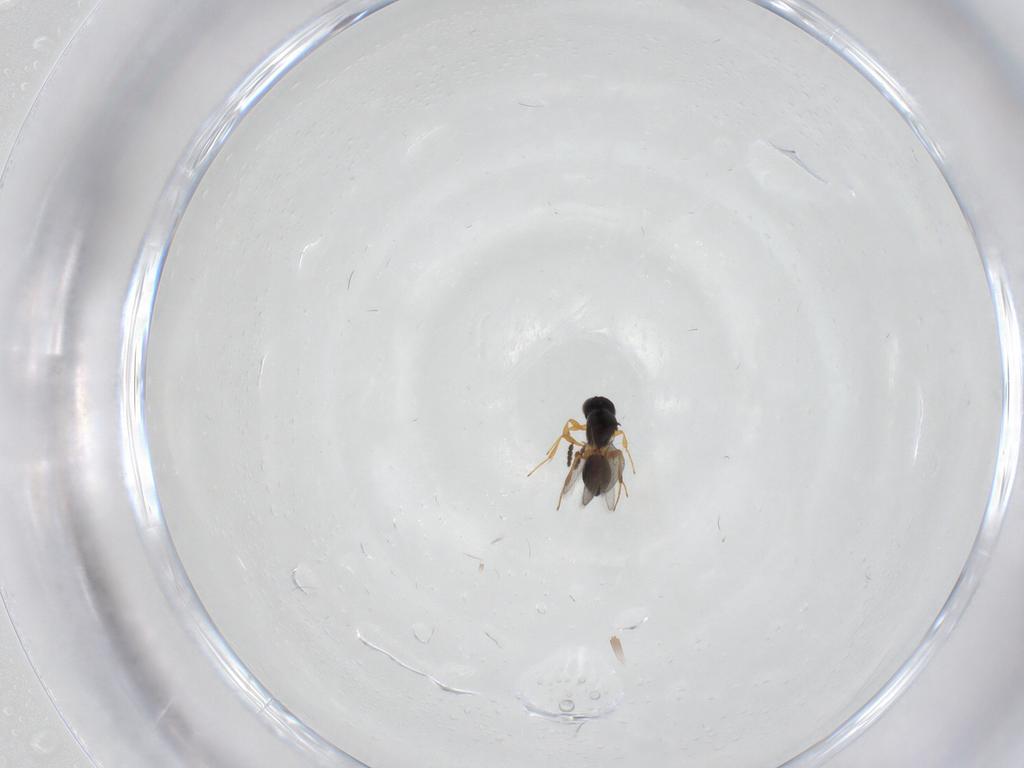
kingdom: Animalia
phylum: Arthropoda
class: Insecta
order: Hymenoptera
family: Platygastridae
